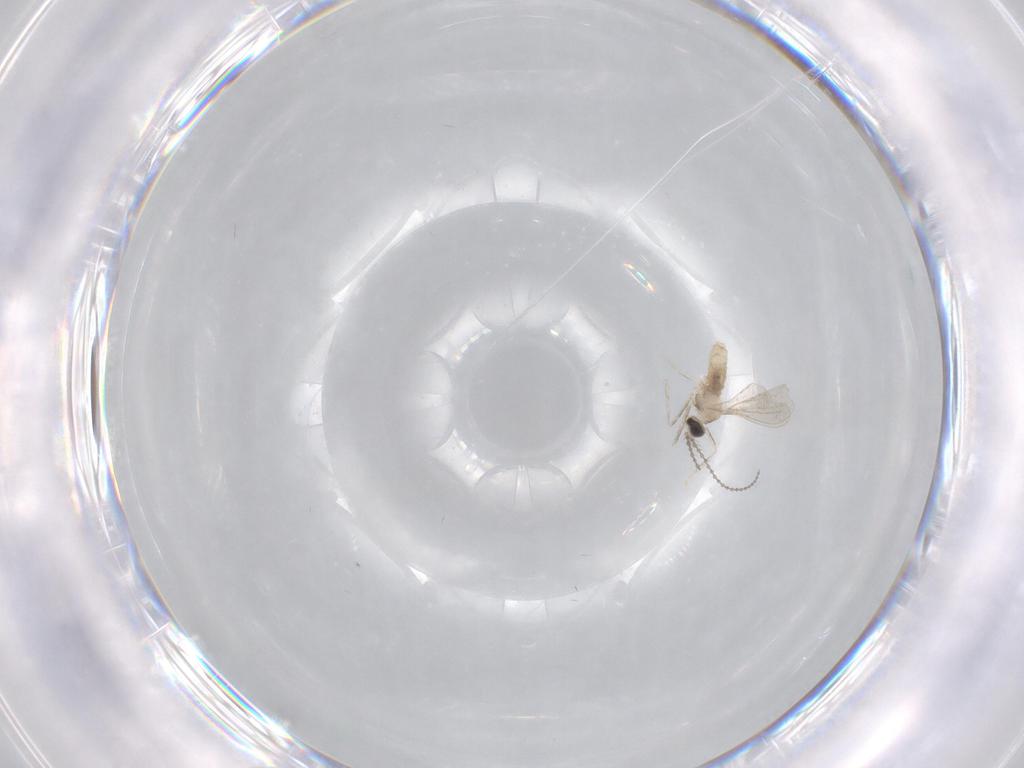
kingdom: Animalia
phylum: Arthropoda
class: Insecta
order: Diptera
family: Cecidomyiidae
